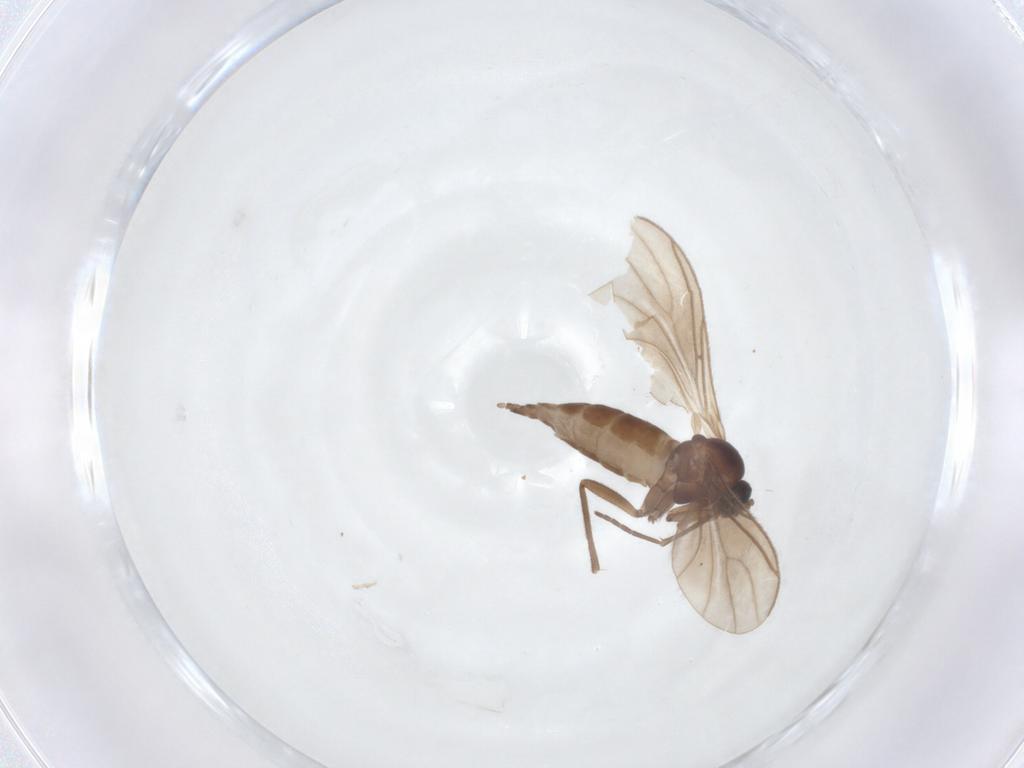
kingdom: Animalia
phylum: Arthropoda
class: Insecta
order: Diptera
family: Sciaridae
